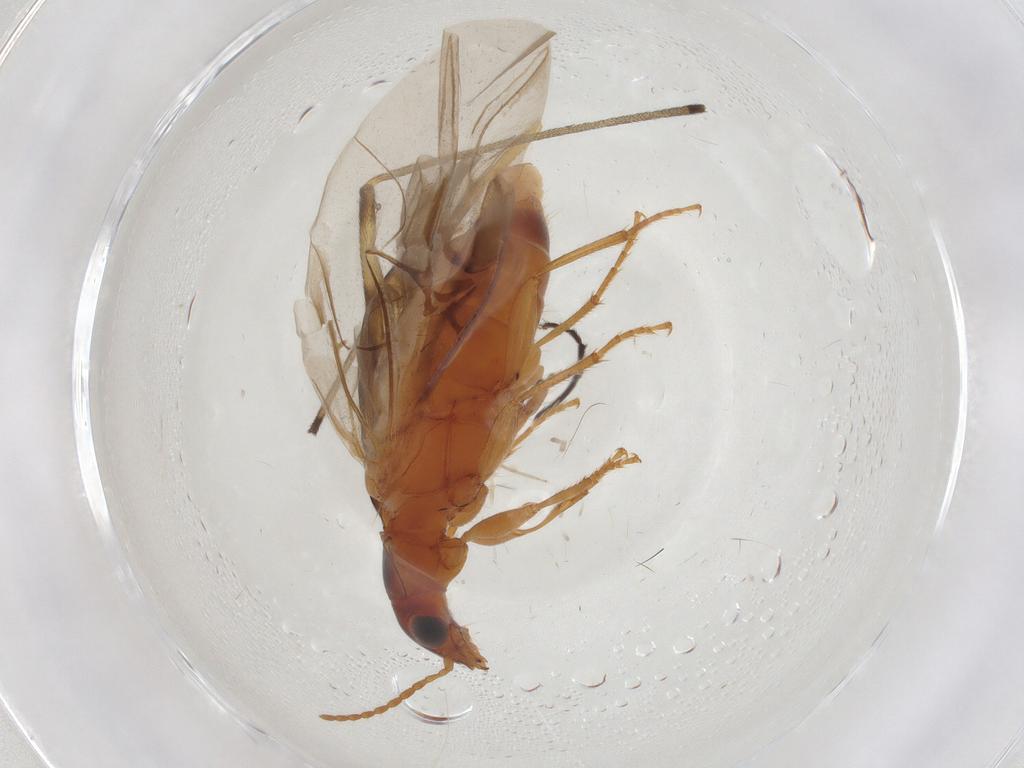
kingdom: Animalia
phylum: Arthropoda
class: Insecta
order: Coleoptera
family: Carabidae
